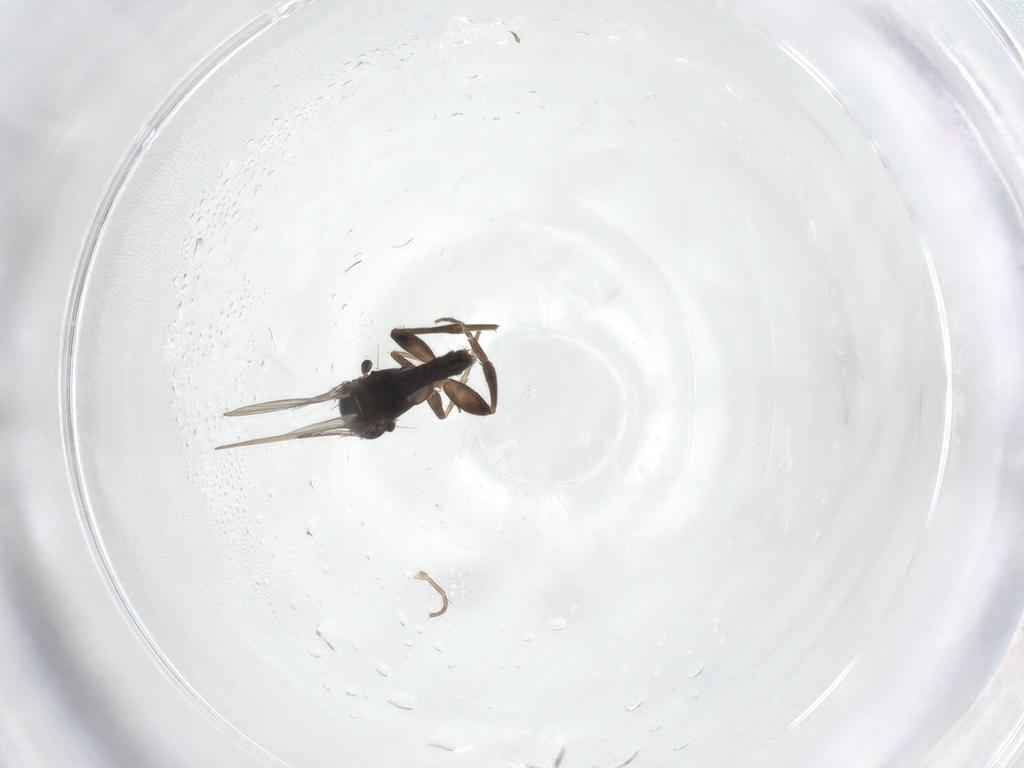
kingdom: Animalia
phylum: Arthropoda
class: Insecta
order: Diptera
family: Phoridae
